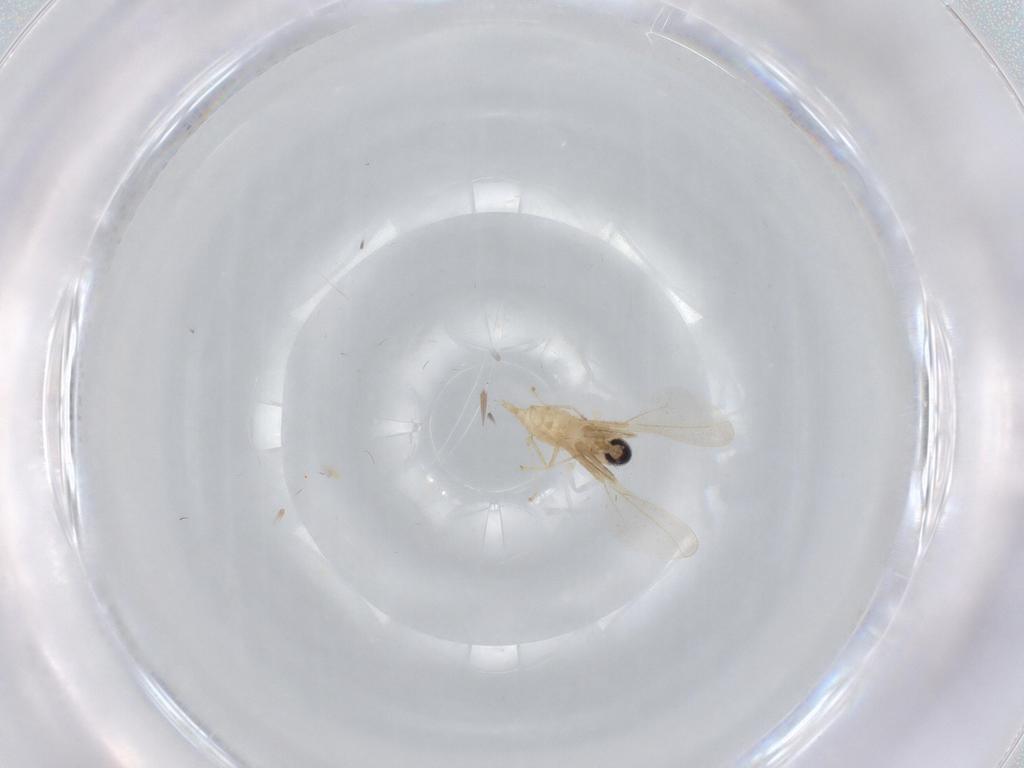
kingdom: Animalia
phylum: Arthropoda
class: Insecta
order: Diptera
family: Cecidomyiidae
